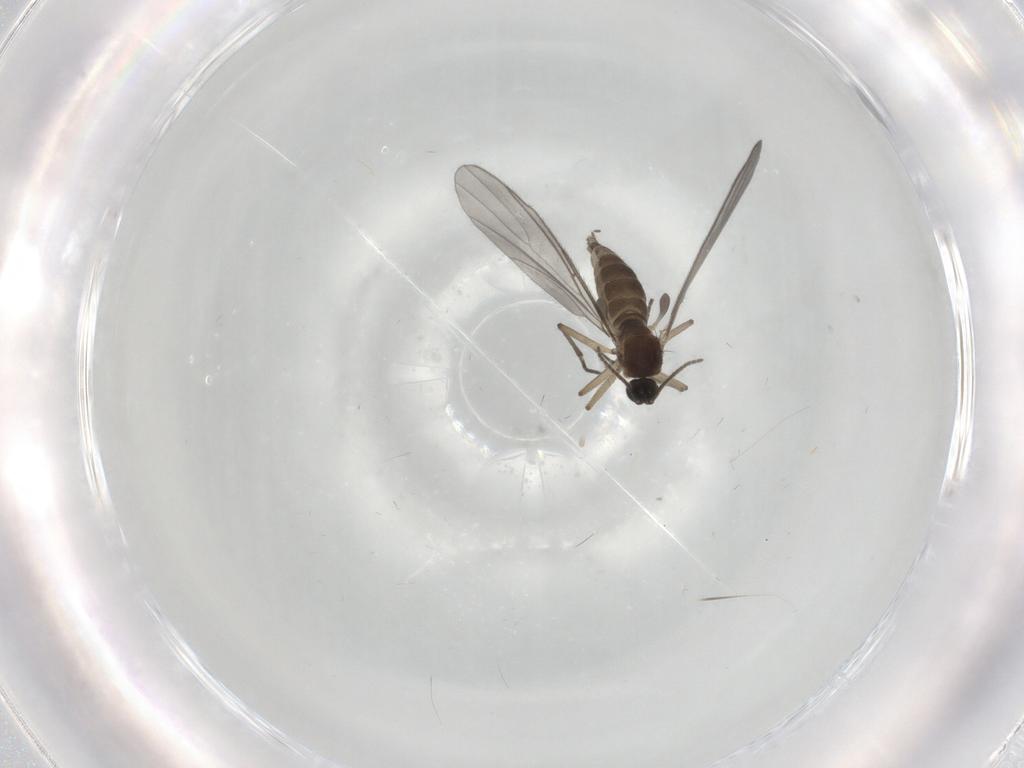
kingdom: Animalia
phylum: Arthropoda
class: Insecta
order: Diptera
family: Sciaridae
